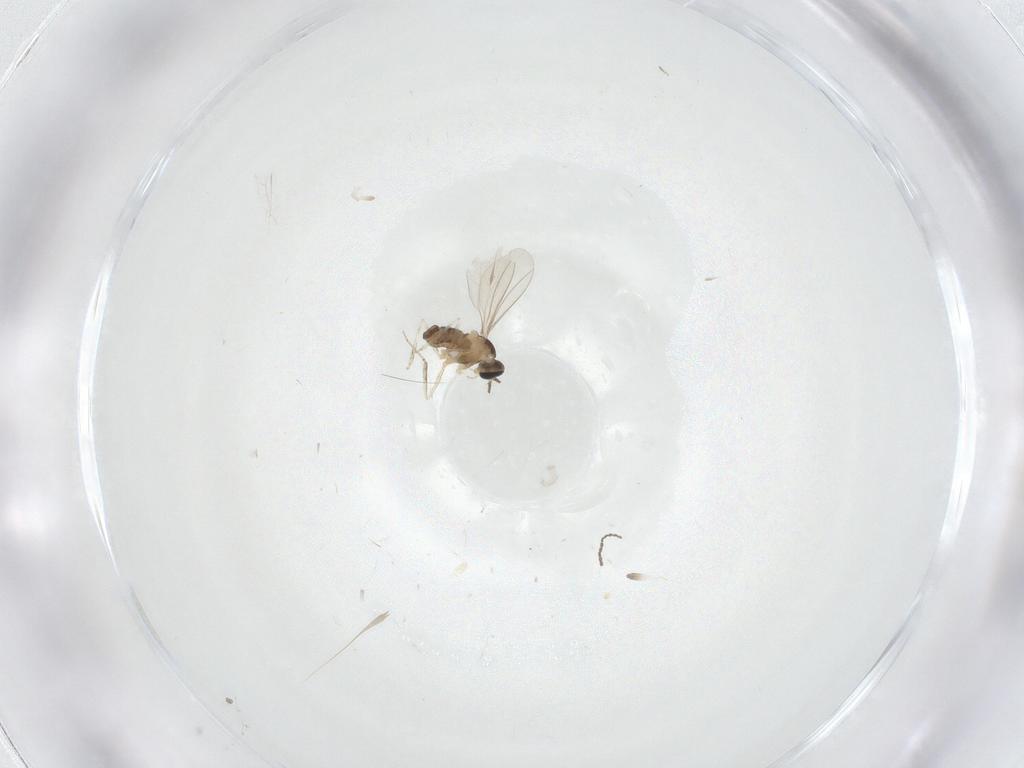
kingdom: Animalia
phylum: Arthropoda
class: Insecta
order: Diptera
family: Cecidomyiidae
